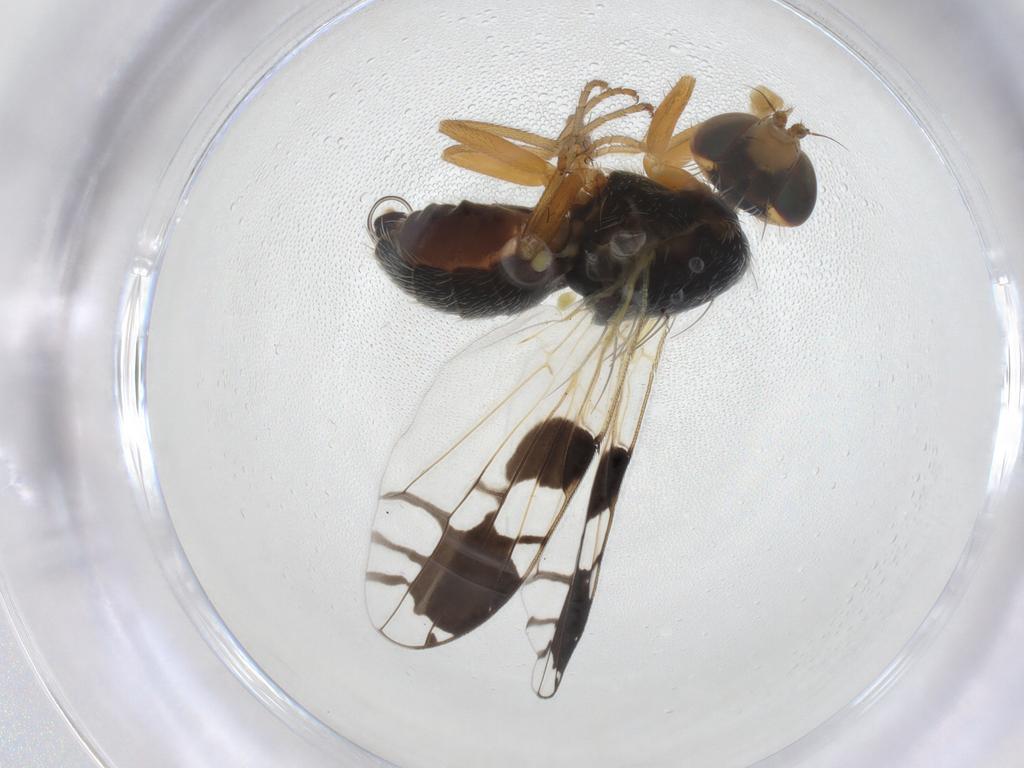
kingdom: Animalia
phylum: Arthropoda
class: Insecta
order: Diptera
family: Tephritidae
